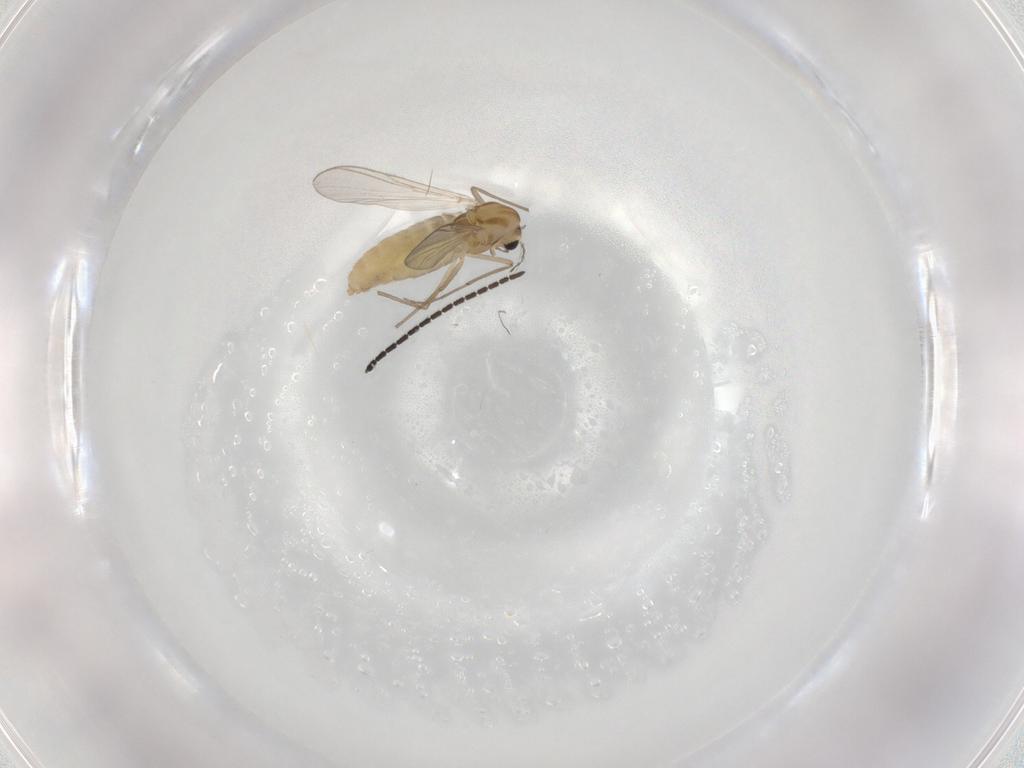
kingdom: Animalia
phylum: Arthropoda
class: Insecta
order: Diptera
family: Chironomidae
